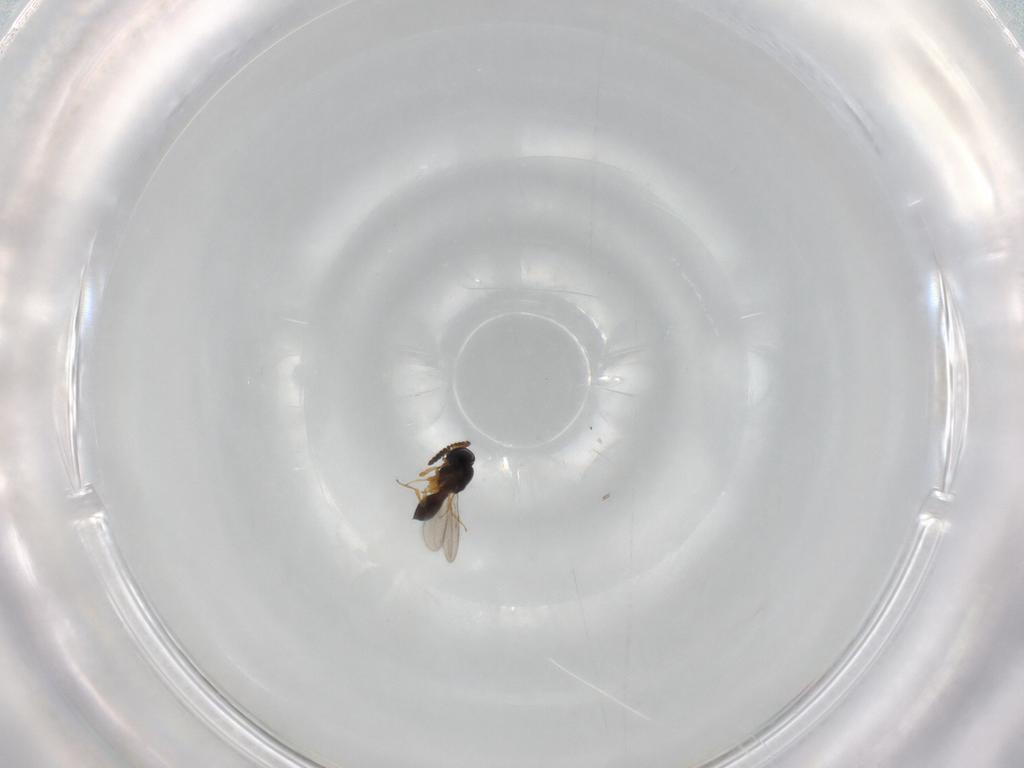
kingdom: Animalia
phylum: Arthropoda
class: Insecta
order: Hymenoptera
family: Scelionidae
